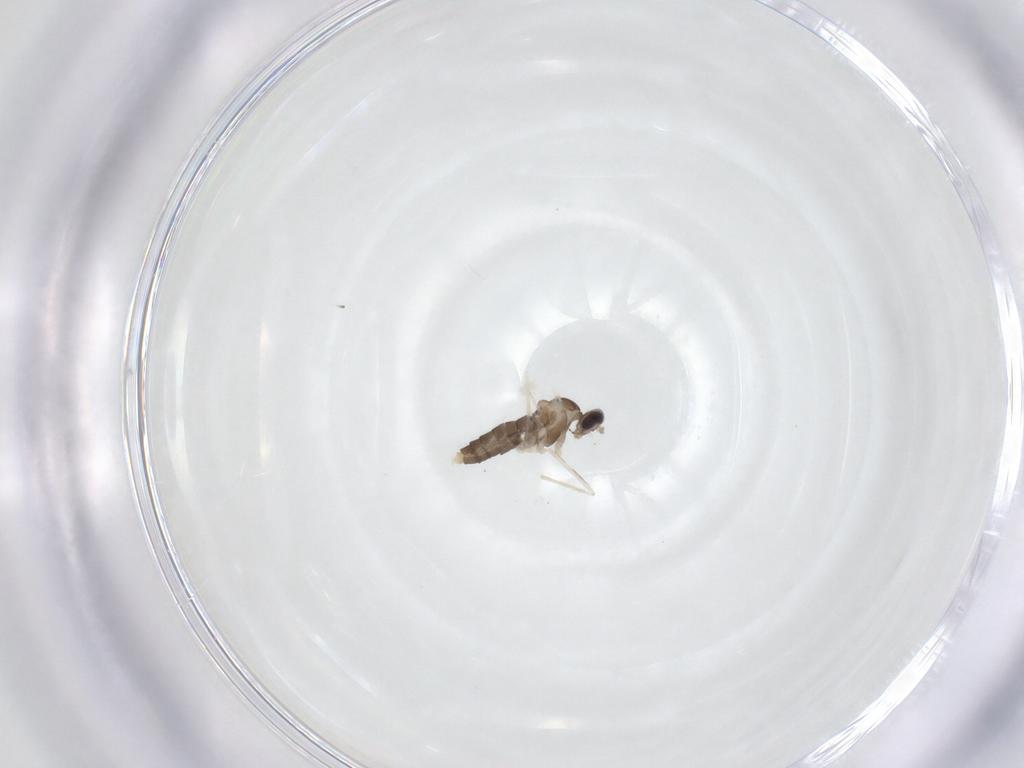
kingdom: Animalia
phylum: Arthropoda
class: Insecta
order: Diptera
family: Cecidomyiidae
